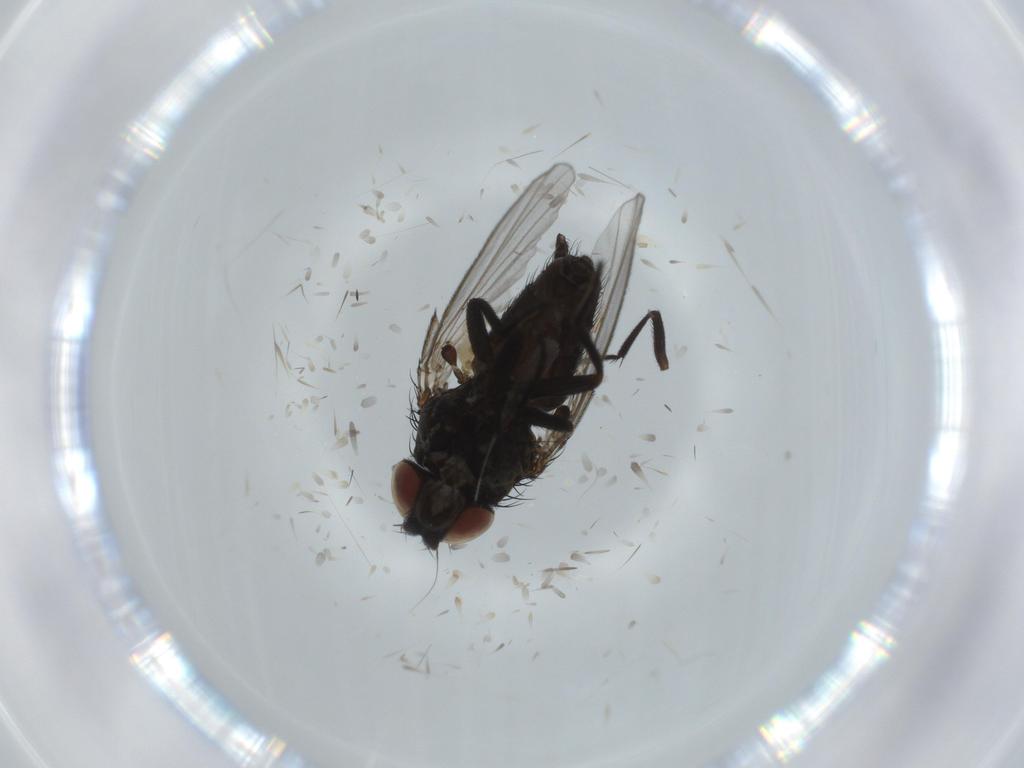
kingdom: Animalia
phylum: Arthropoda
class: Insecta
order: Diptera
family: Milichiidae
